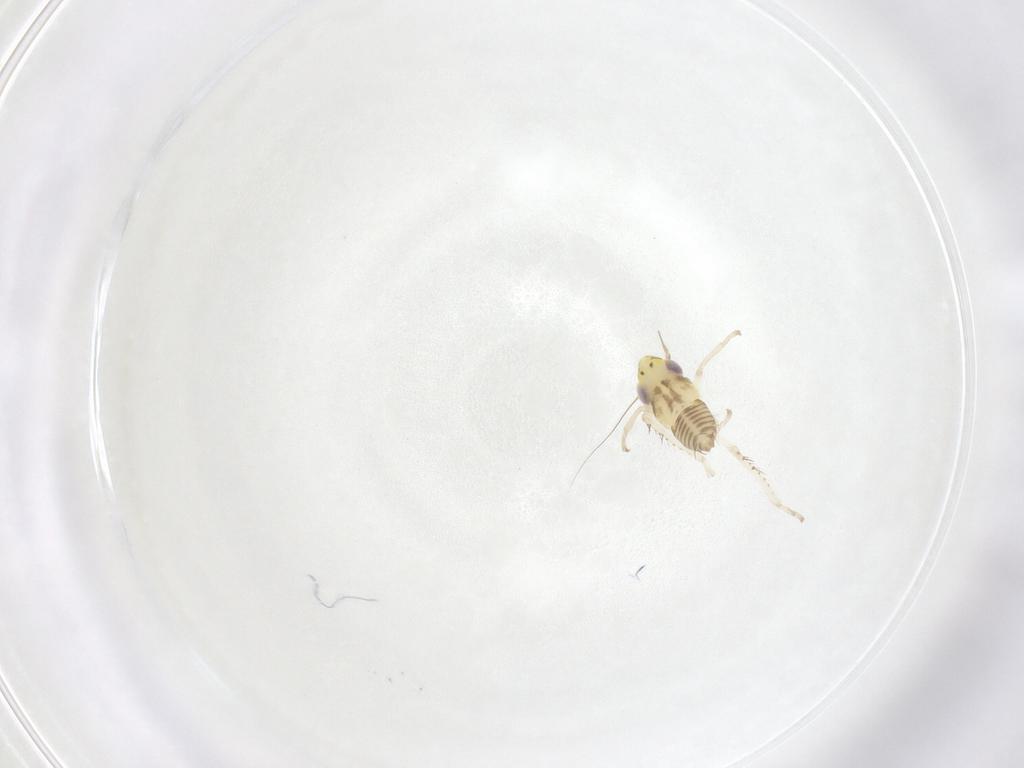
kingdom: Animalia
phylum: Arthropoda
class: Insecta
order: Hemiptera
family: Cicadellidae
